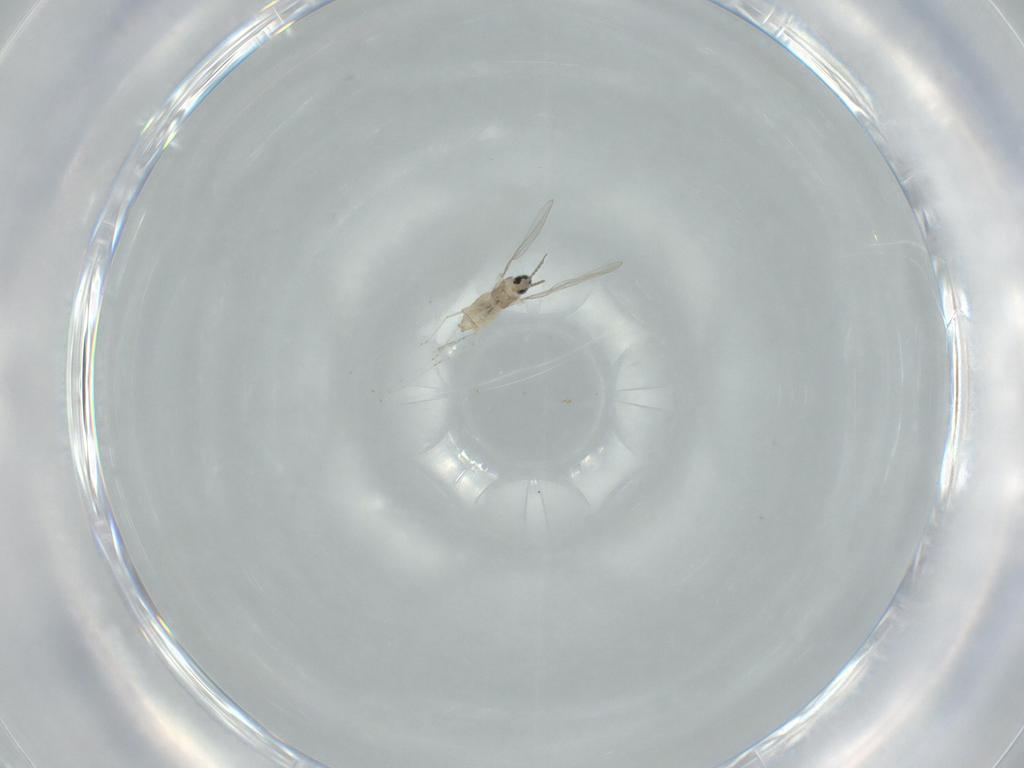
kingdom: Animalia
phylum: Arthropoda
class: Insecta
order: Diptera
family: Cecidomyiidae
